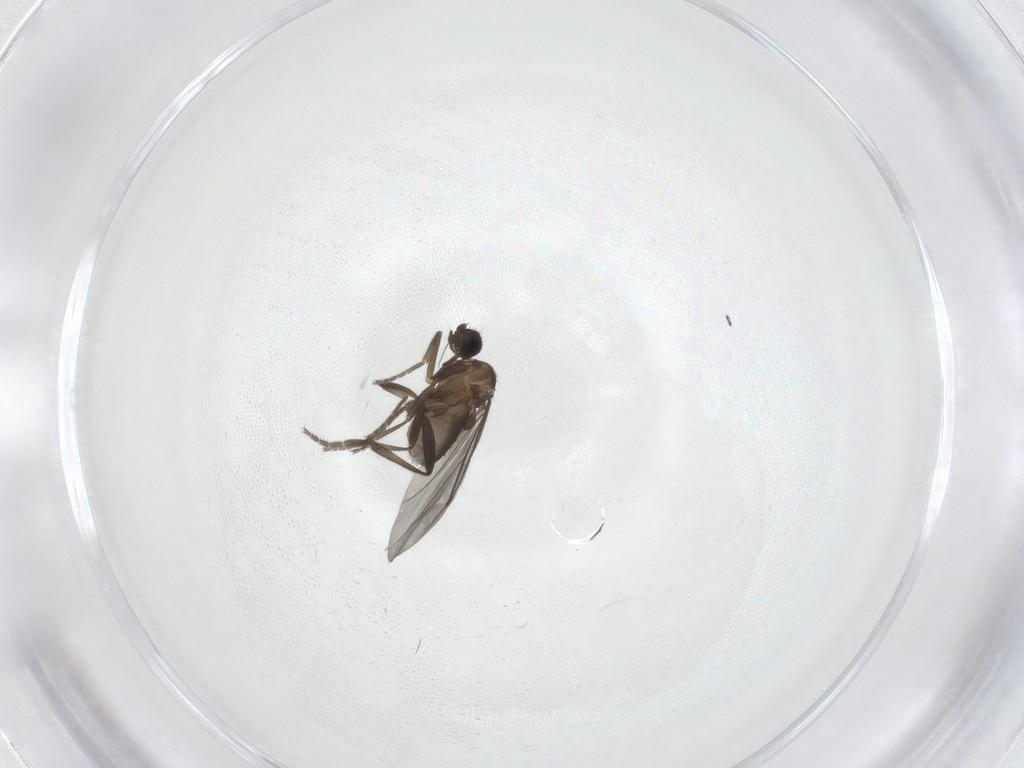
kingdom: Animalia
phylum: Arthropoda
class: Insecta
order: Diptera
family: Phoridae
